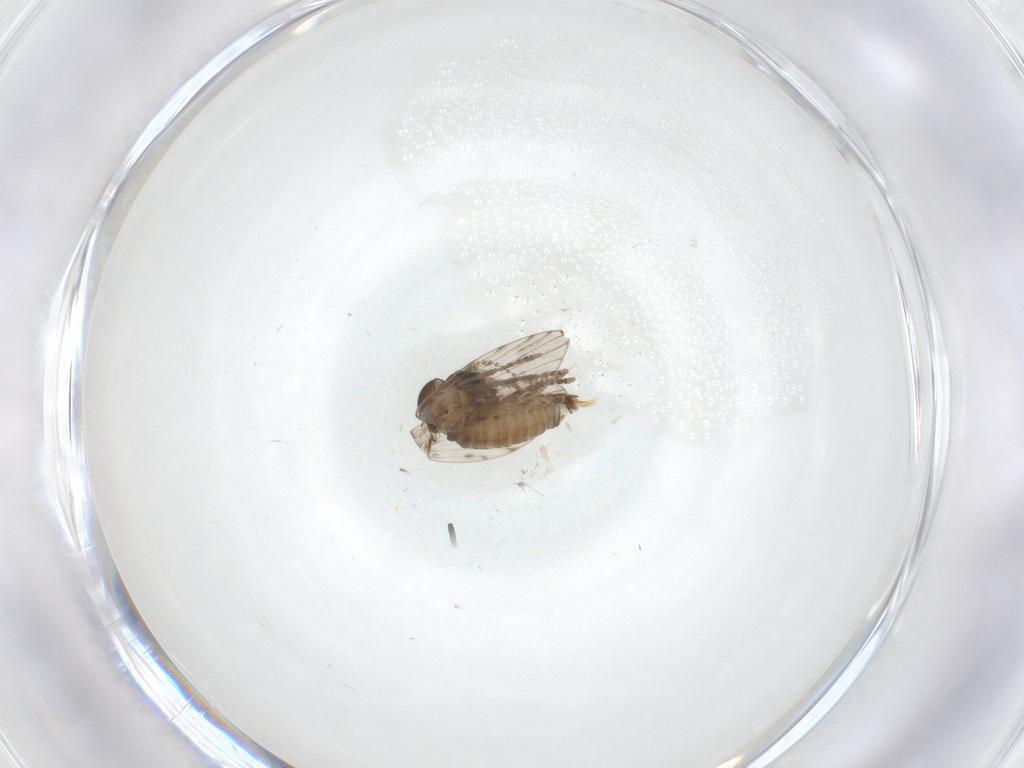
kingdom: Animalia
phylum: Arthropoda
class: Insecta
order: Diptera
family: Psychodidae
